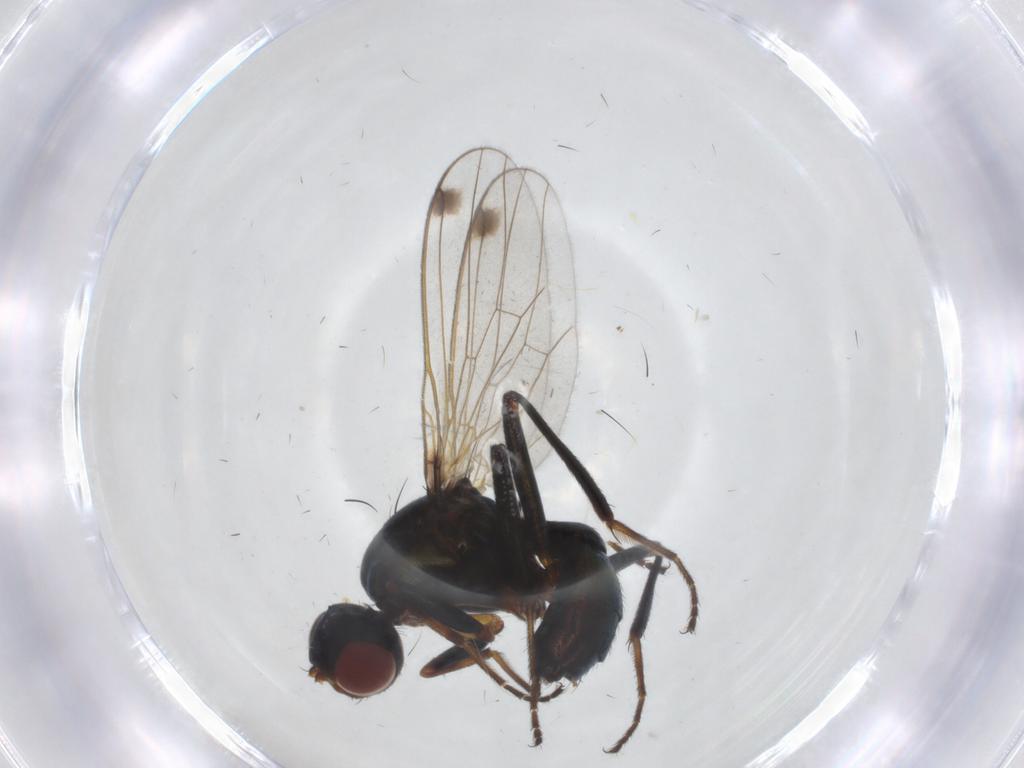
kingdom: Animalia
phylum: Arthropoda
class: Insecta
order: Diptera
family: Sepsidae
